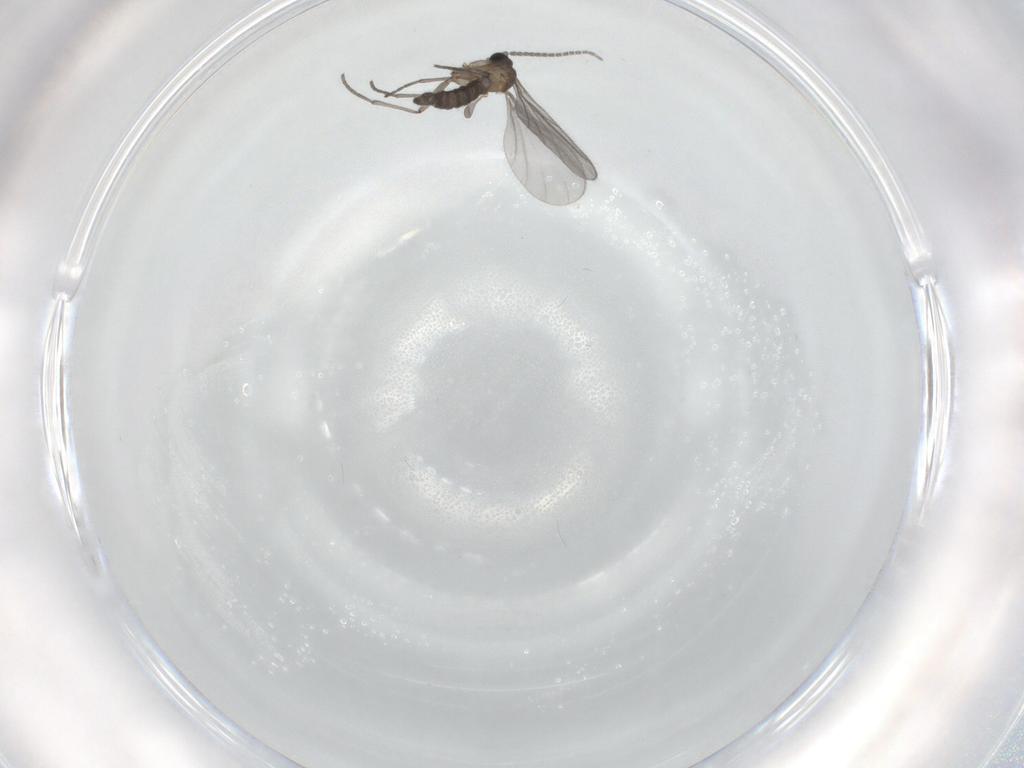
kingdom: Animalia
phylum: Arthropoda
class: Insecta
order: Diptera
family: Sciaridae
